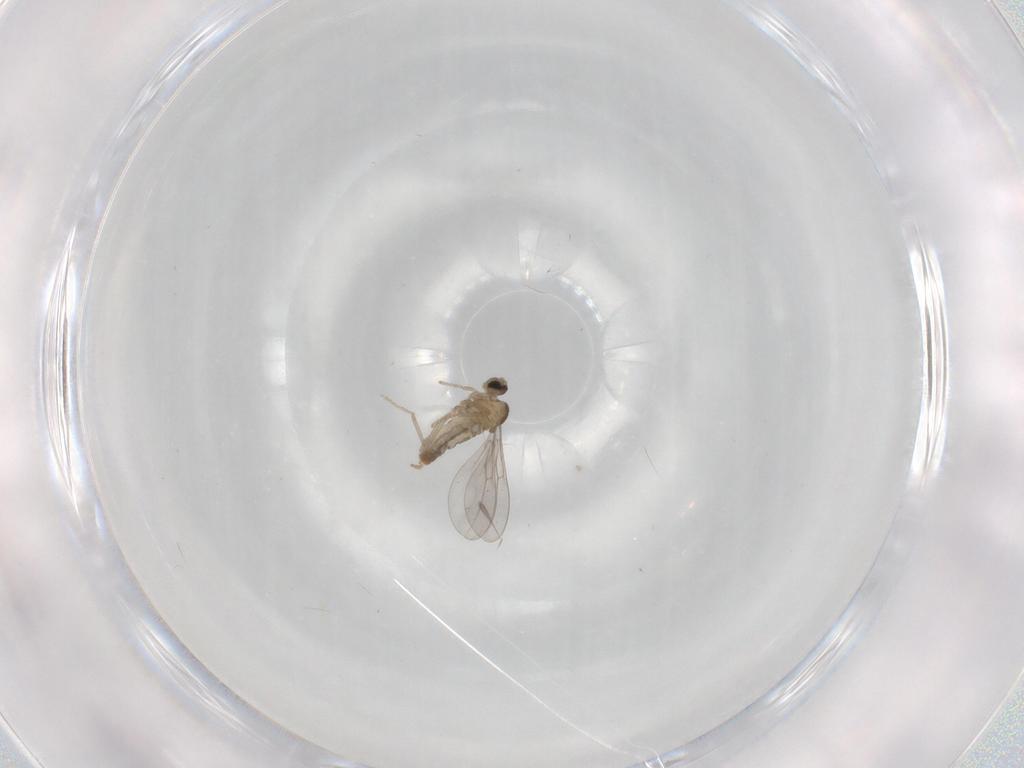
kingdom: Animalia
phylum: Arthropoda
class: Insecta
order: Diptera
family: Cecidomyiidae
